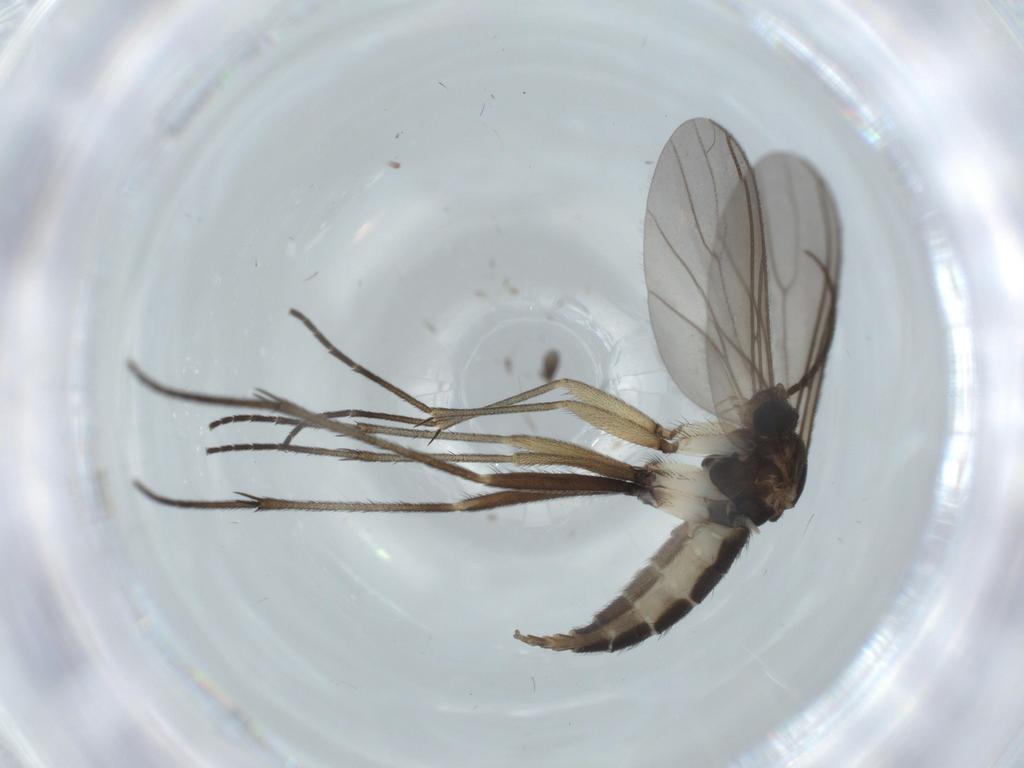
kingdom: Animalia
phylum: Arthropoda
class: Insecta
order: Diptera
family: Sciaridae
